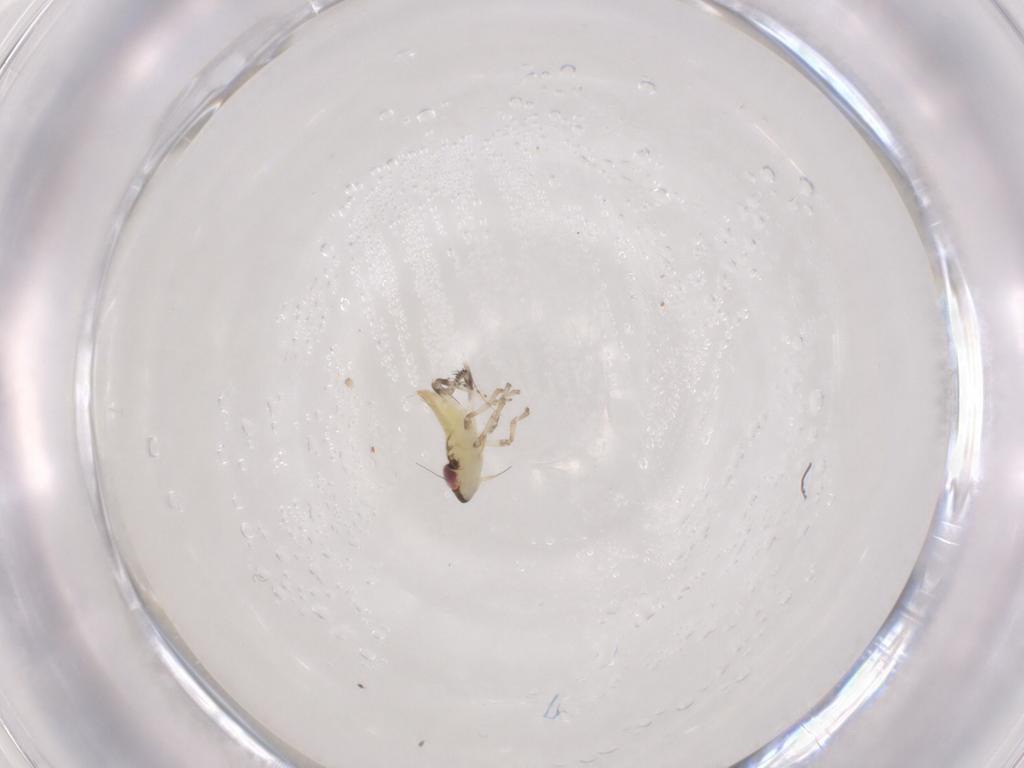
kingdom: Animalia
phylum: Arthropoda
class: Insecta
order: Hemiptera
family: Cicadellidae
